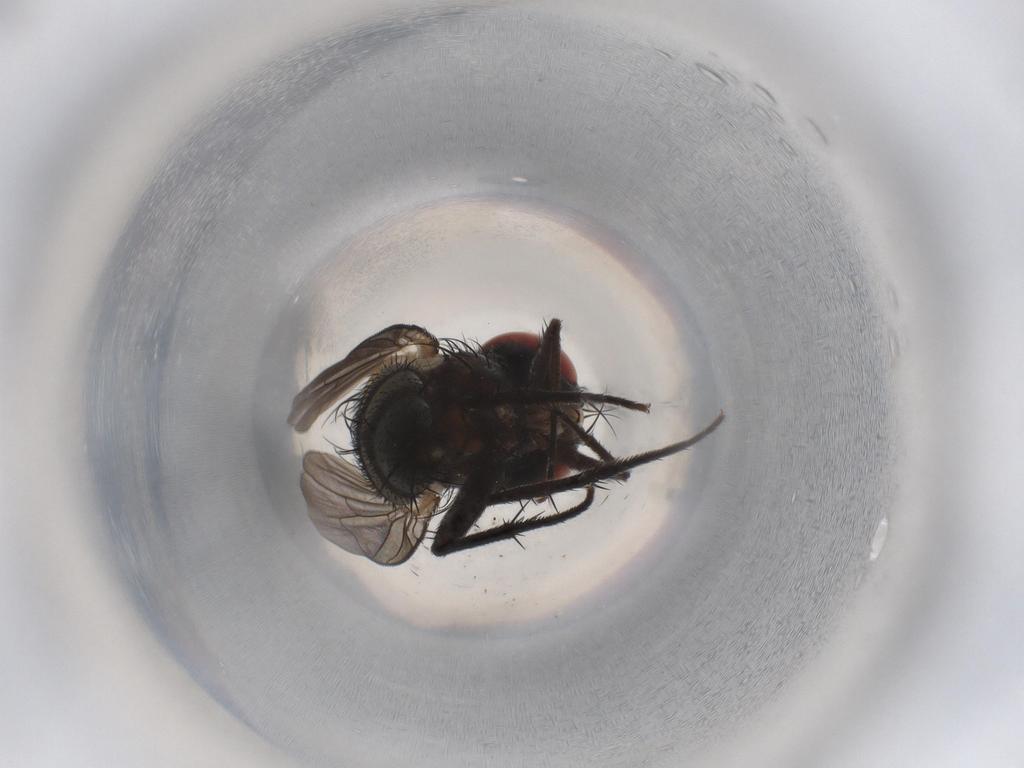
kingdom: Animalia
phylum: Arthropoda
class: Insecta
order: Diptera
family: Sarcophagidae
